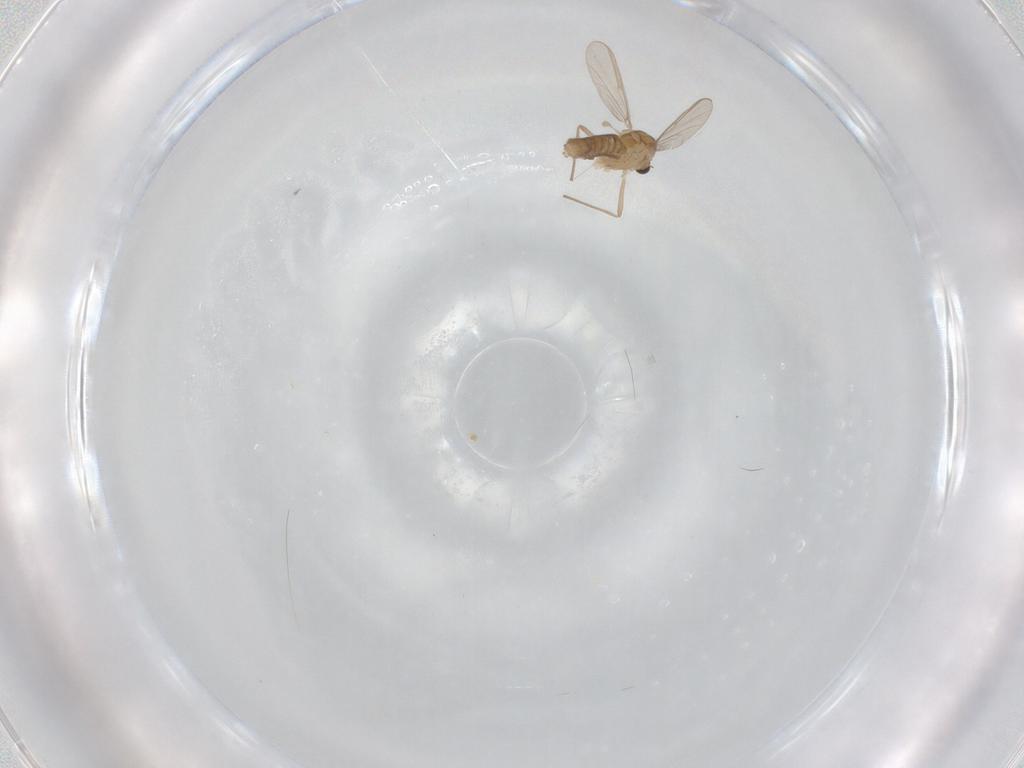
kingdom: Animalia
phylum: Arthropoda
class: Insecta
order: Diptera
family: Chironomidae
